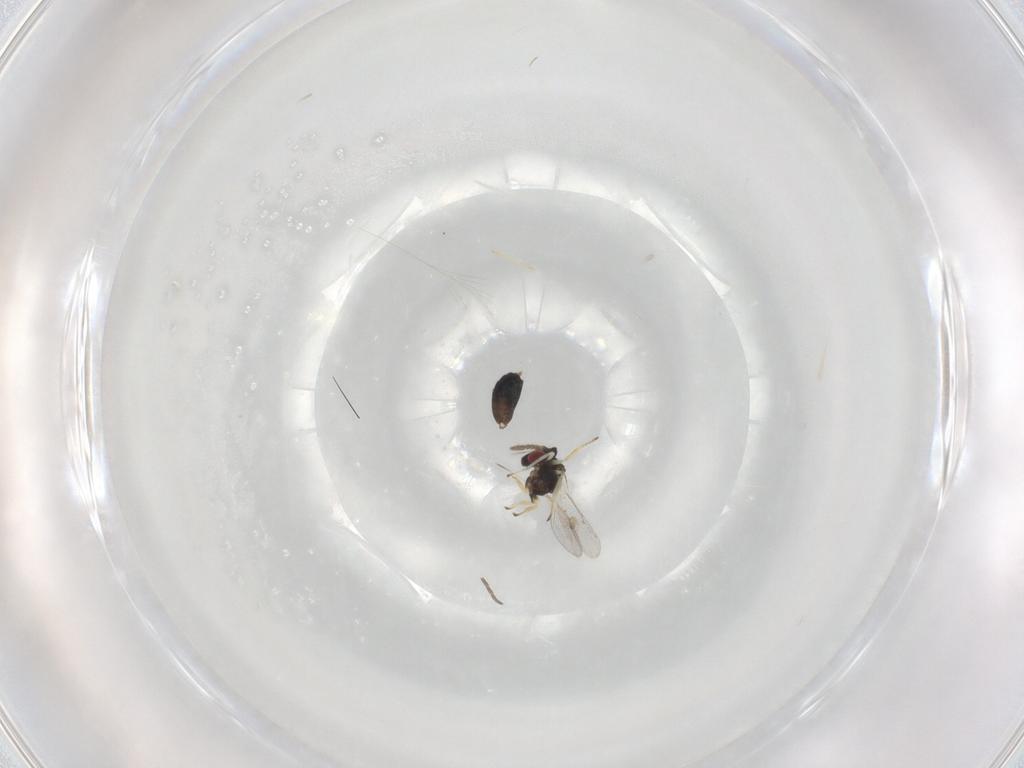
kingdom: Animalia
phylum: Arthropoda
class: Insecta
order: Hymenoptera
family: Eulophidae
